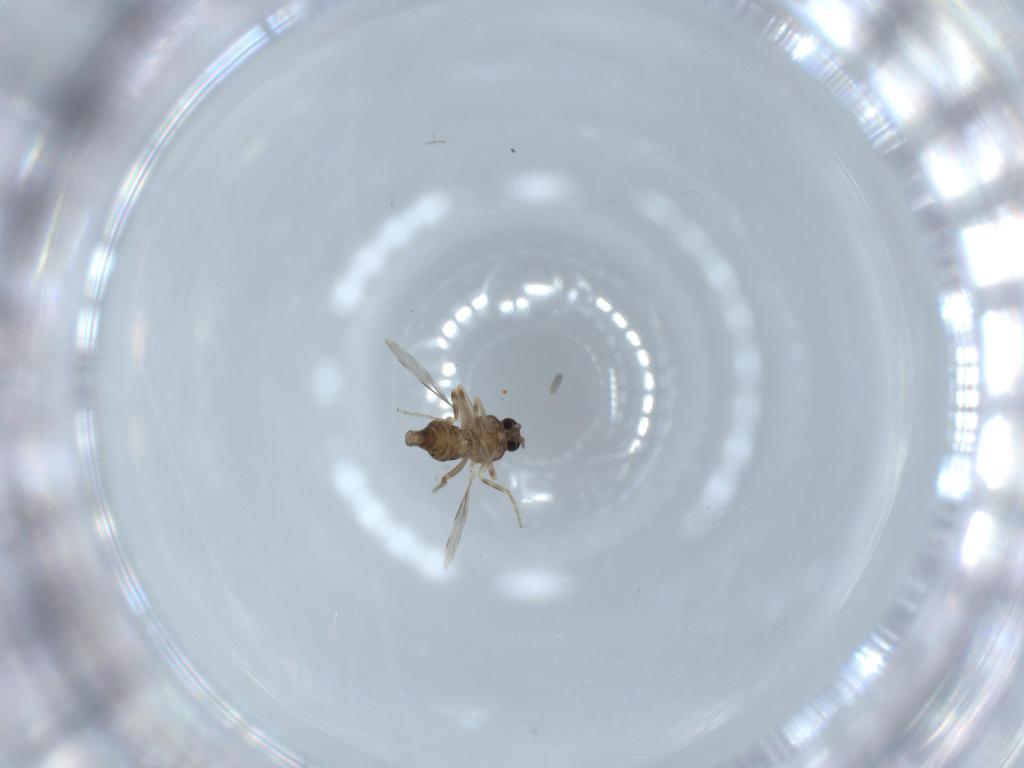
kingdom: Animalia
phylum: Arthropoda
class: Insecta
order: Diptera
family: Ceratopogonidae
